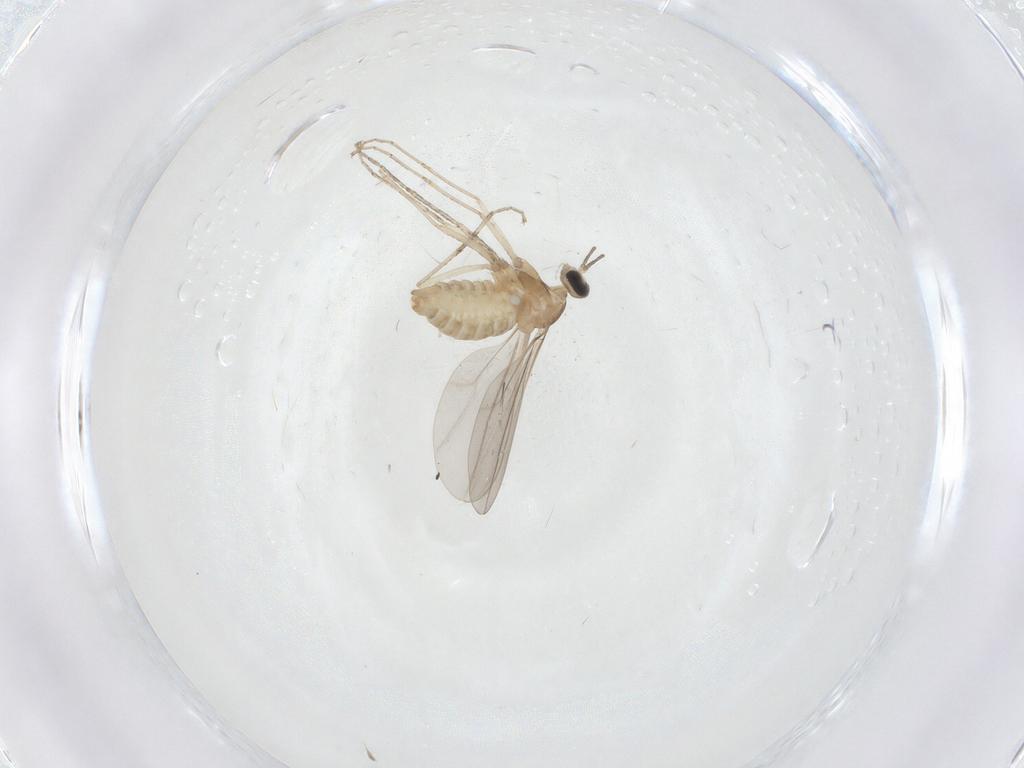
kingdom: Animalia
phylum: Arthropoda
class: Insecta
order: Diptera
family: Cecidomyiidae
